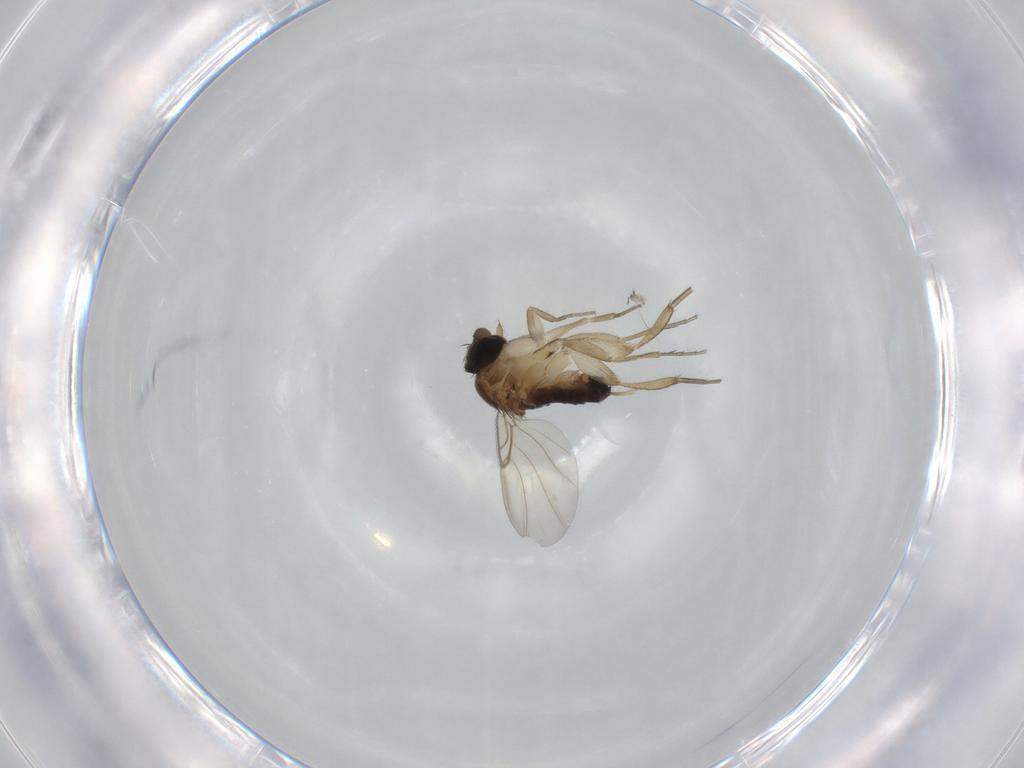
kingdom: Animalia
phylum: Arthropoda
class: Insecta
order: Diptera
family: Phoridae
